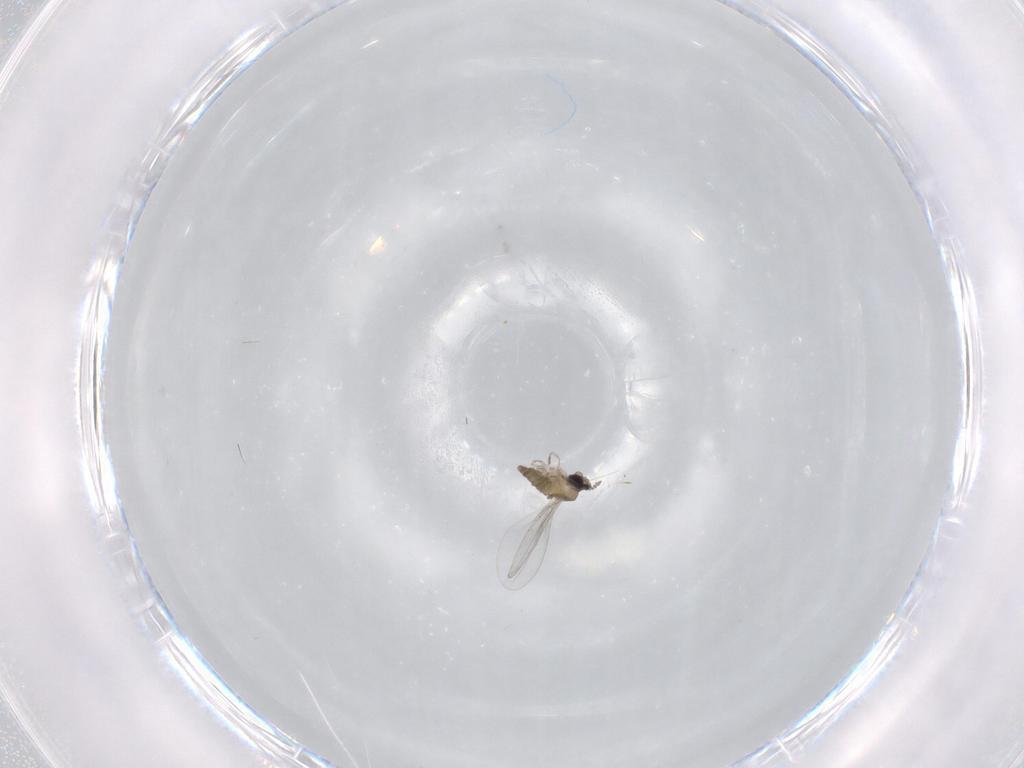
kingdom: Animalia
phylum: Arthropoda
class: Insecta
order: Diptera
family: Cecidomyiidae
